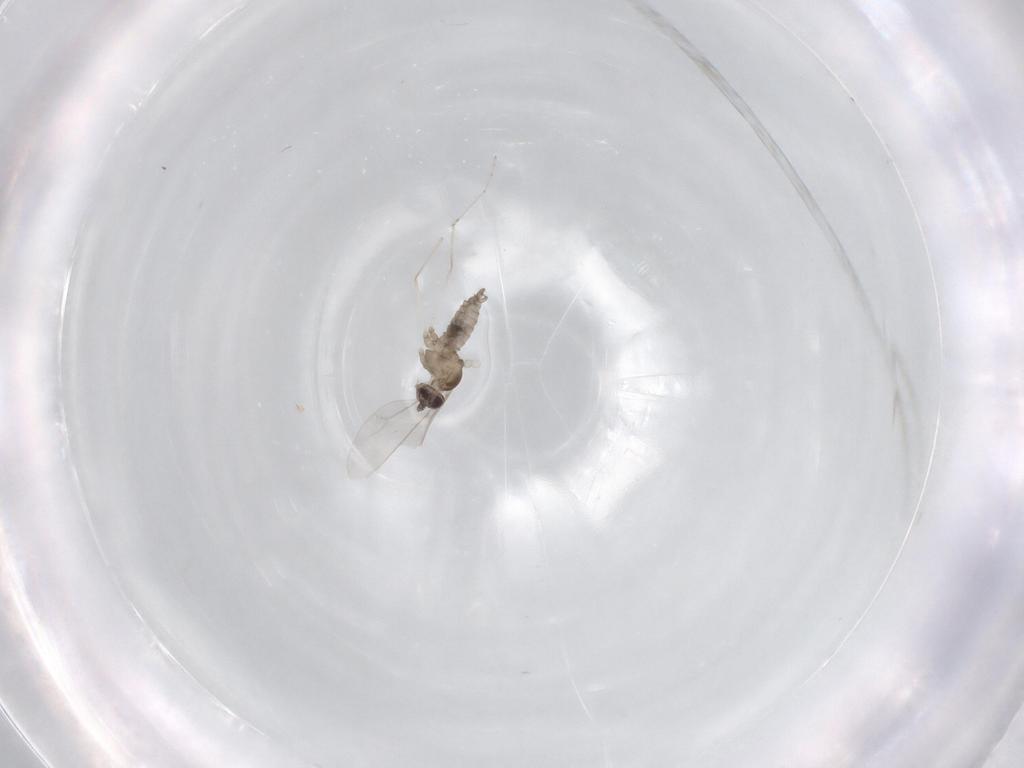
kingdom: Animalia
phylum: Arthropoda
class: Insecta
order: Diptera
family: Cecidomyiidae
